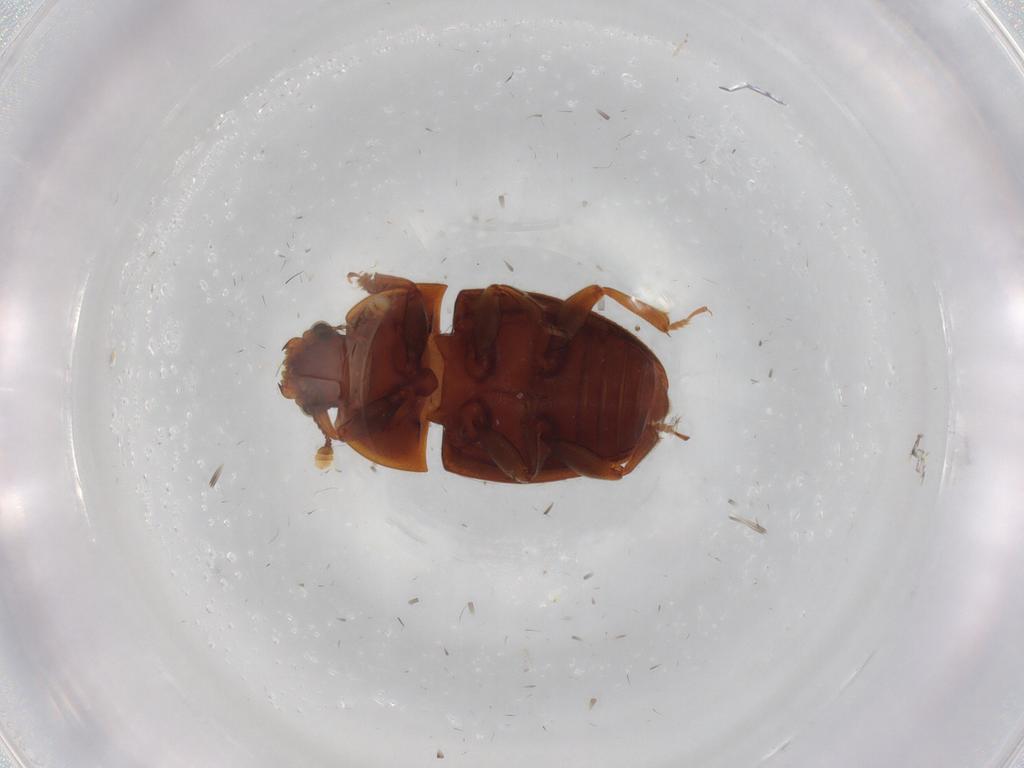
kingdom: Animalia
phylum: Arthropoda
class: Insecta
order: Coleoptera
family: Nitidulidae
